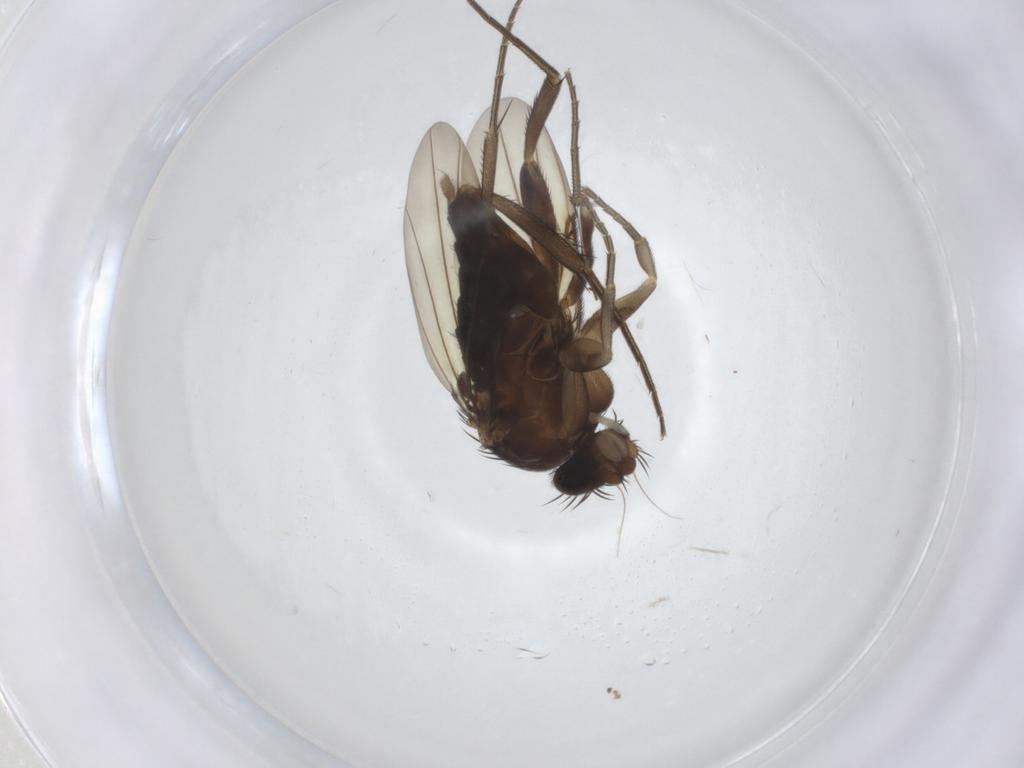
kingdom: Animalia
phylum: Arthropoda
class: Insecta
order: Diptera
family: Phoridae
